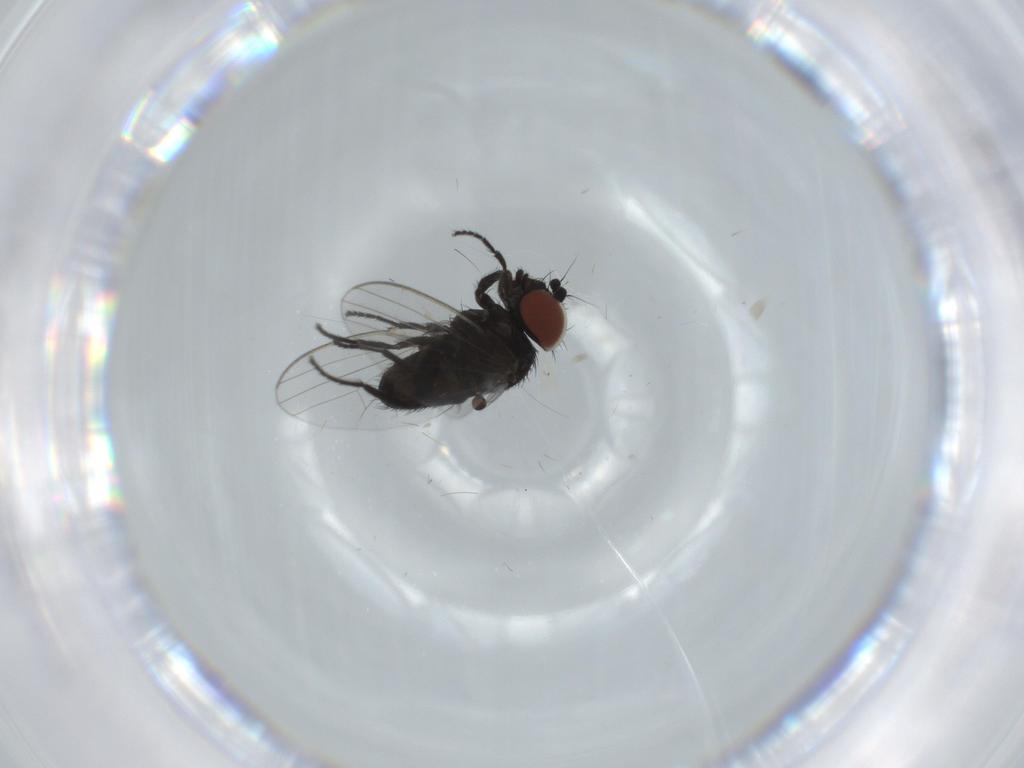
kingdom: Animalia
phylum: Arthropoda
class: Insecta
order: Diptera
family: Milichiidae
